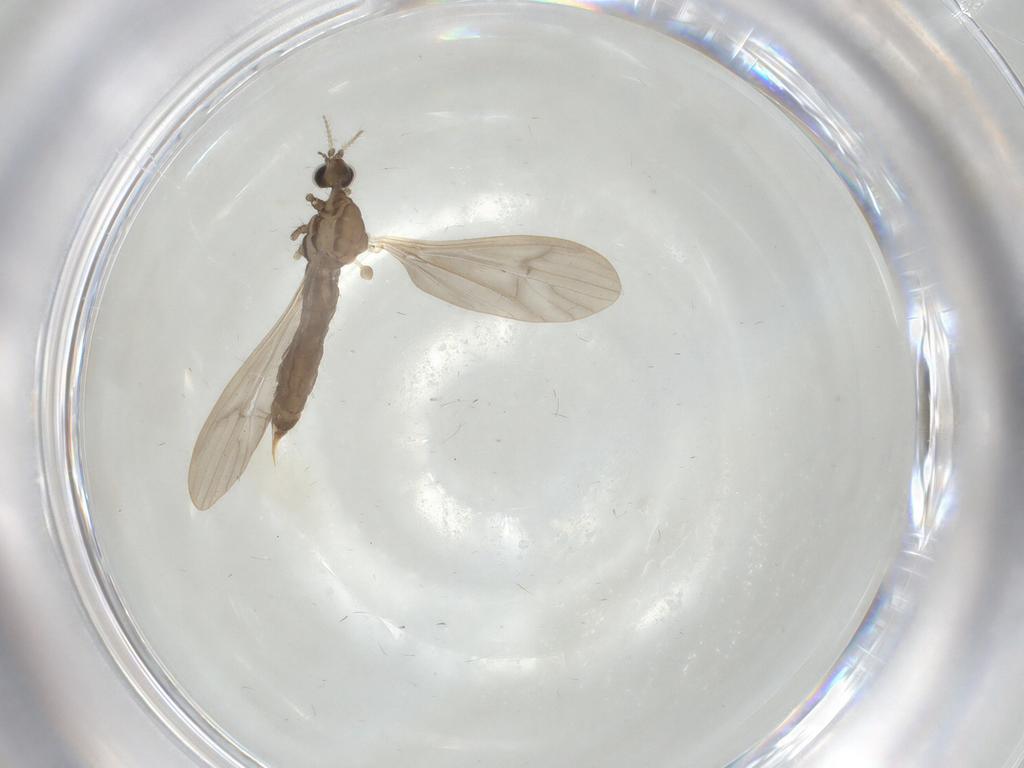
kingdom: Animalia
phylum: Arthropoda
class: Insecta
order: Diptera
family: Limoniidae
